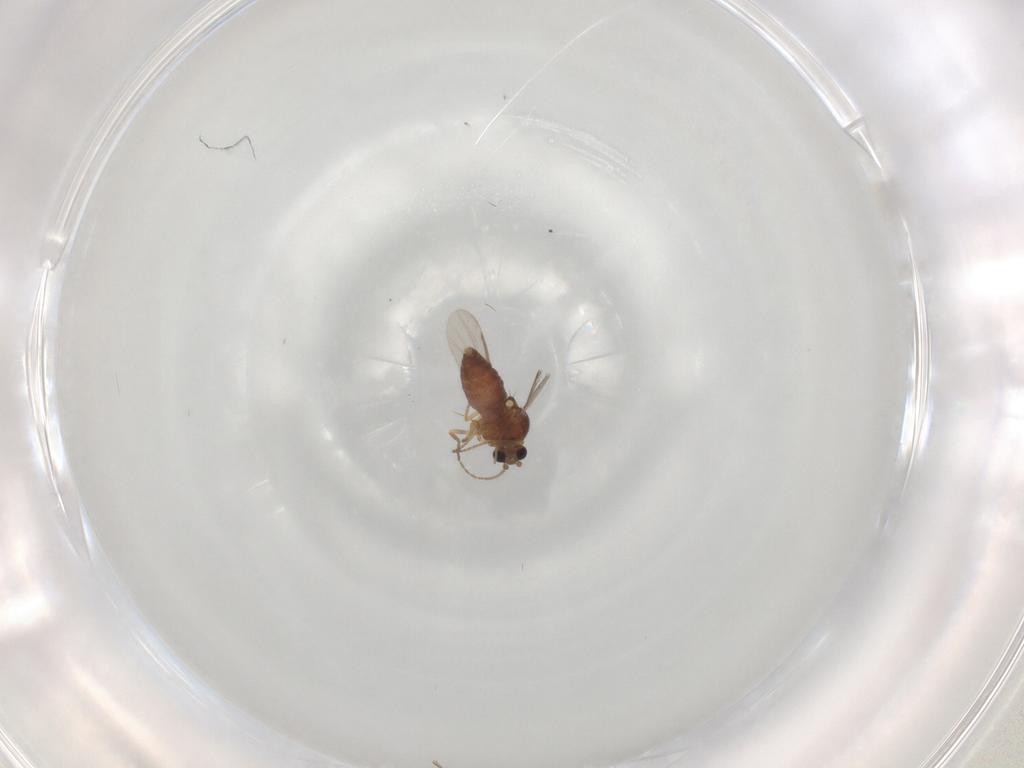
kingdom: Animalia
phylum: Arthropoda
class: Insecta
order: Diptera
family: Ceratopogonidae
